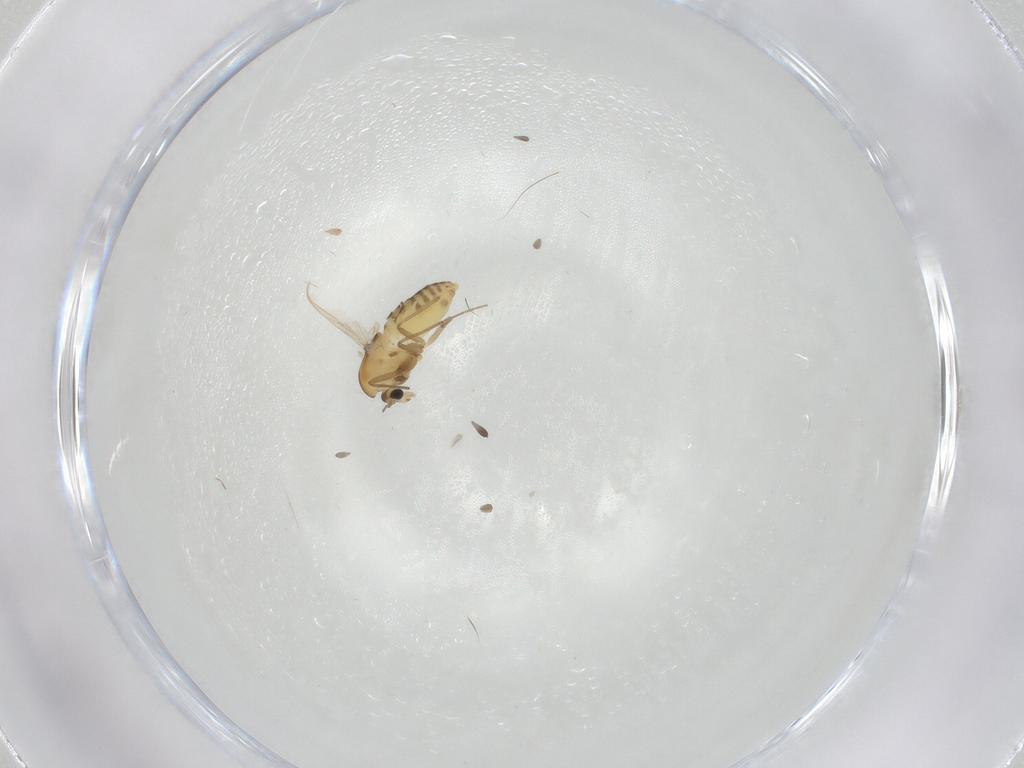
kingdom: Animalia
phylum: Arthropoda
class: Insecta
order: Diptera
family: Chironomidae
